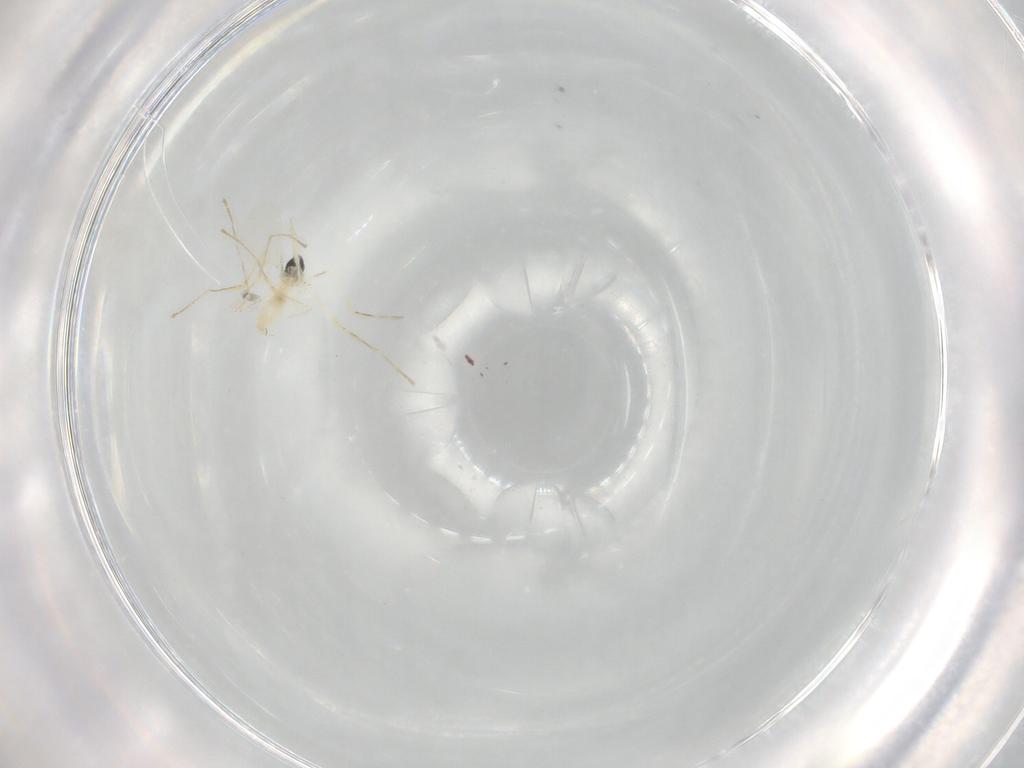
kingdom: Animalia
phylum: Arthropoda
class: Insecta
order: Diptera
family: Cecidomyiidae
